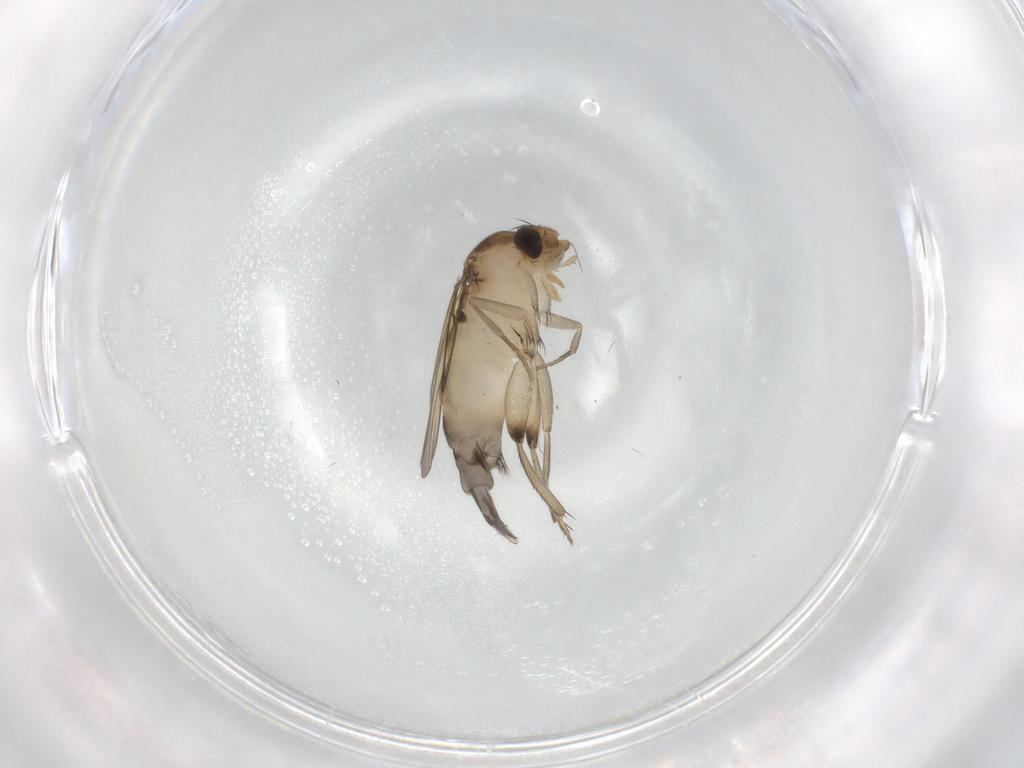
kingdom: Animalia
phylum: Arthropoda
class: Insecta
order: Diptera
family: Phoridae
